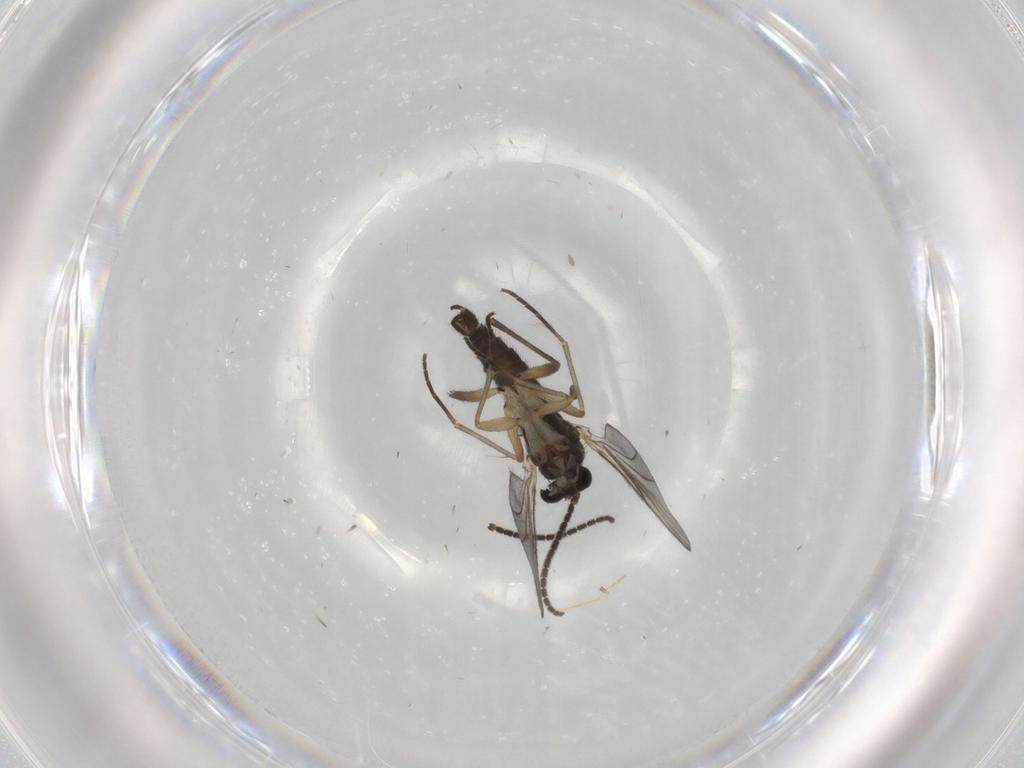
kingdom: Animalia
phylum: Arthropoda
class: Insecta
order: Diptera
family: Sciaridae
